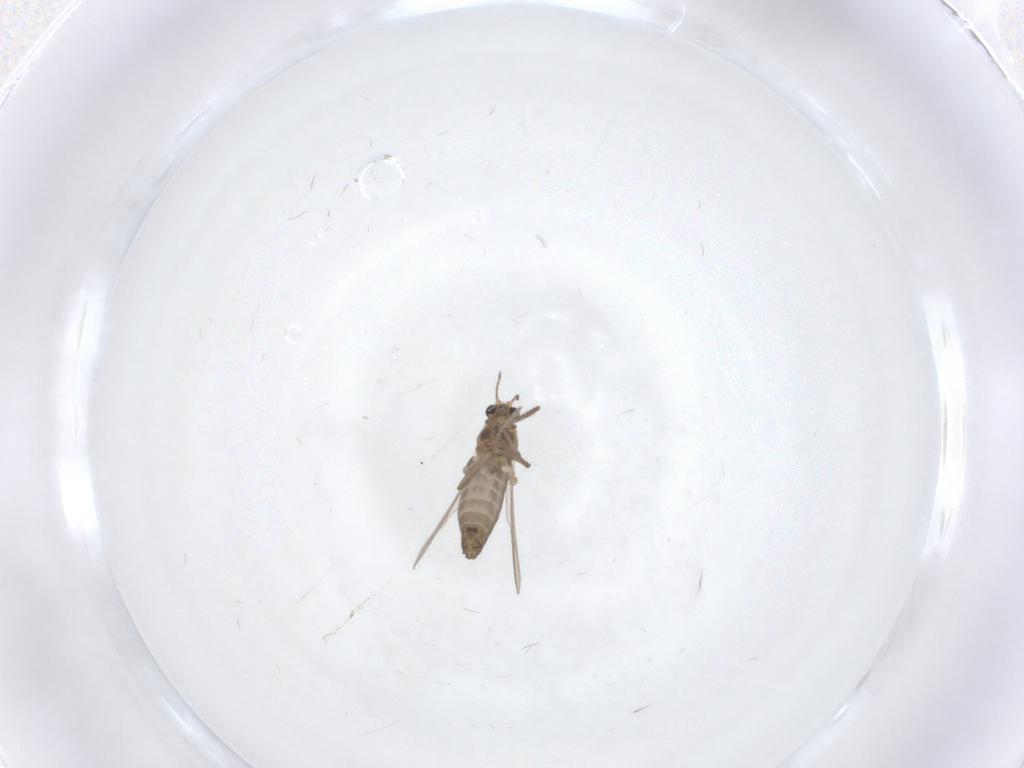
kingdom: Animalia
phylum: Arthropoda
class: Insecta
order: Diptera
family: Chironomidae
